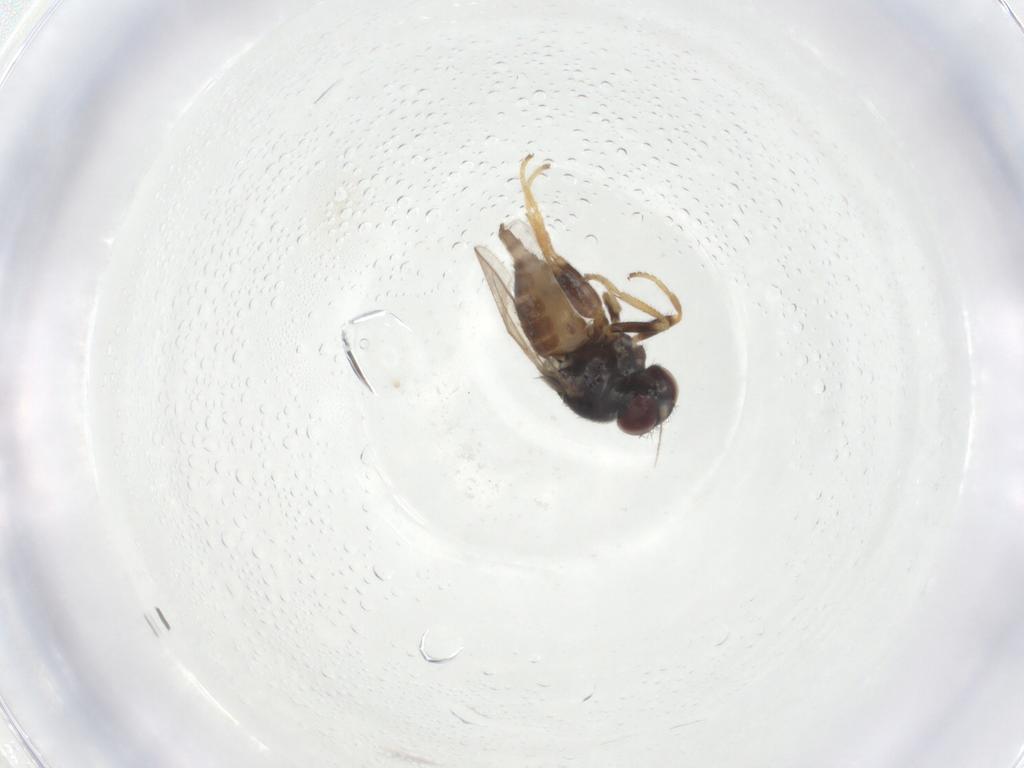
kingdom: Animalia
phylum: Arthropoda
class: Insecta
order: Diptera
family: Chloropidae
